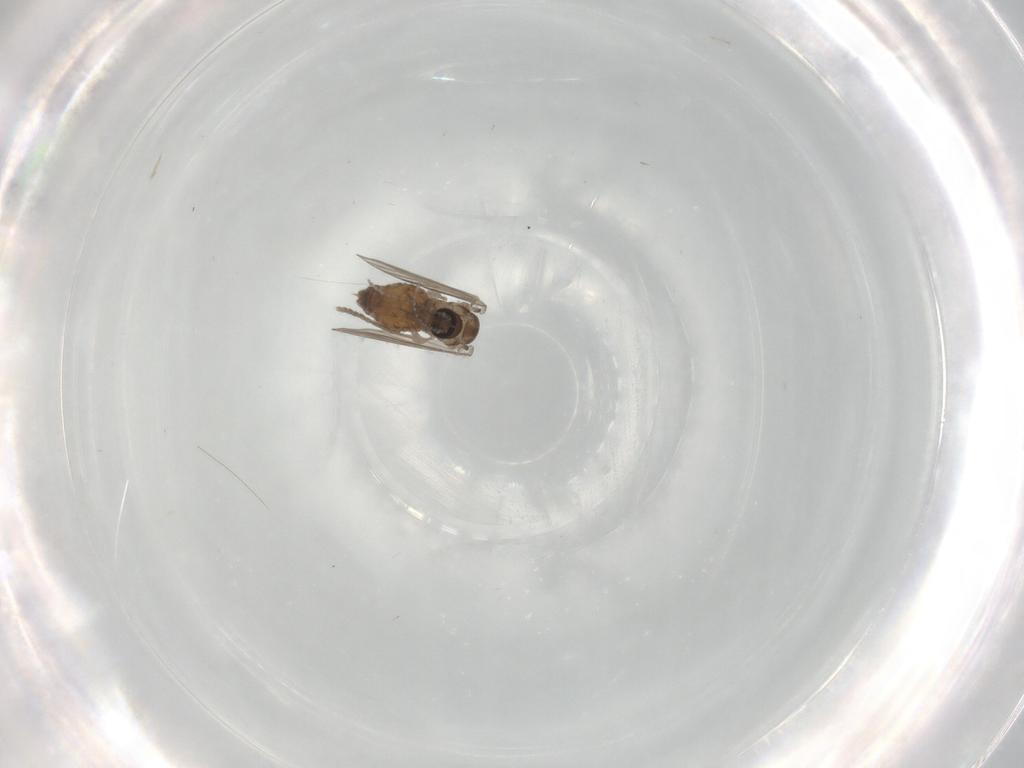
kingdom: Animalia
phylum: Arthropoda
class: Insecta
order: Diptera
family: Psychodidae
